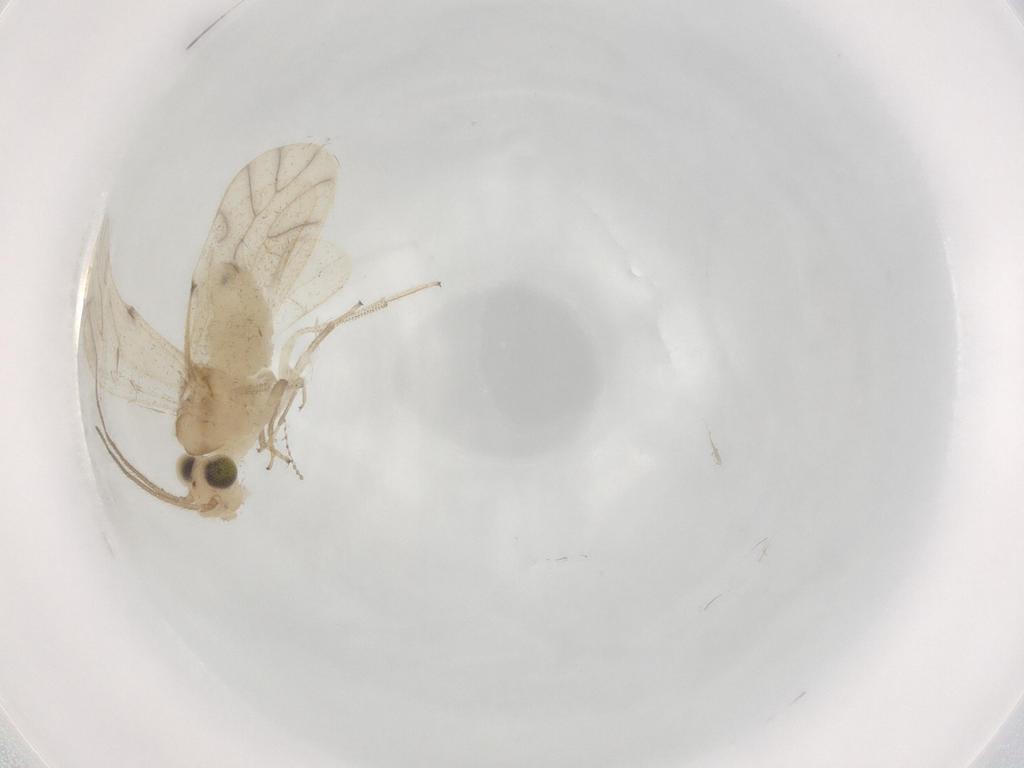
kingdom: Animalia
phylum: Arthropoda
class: Insecta
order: Psocodea
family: Caeciliusidae
